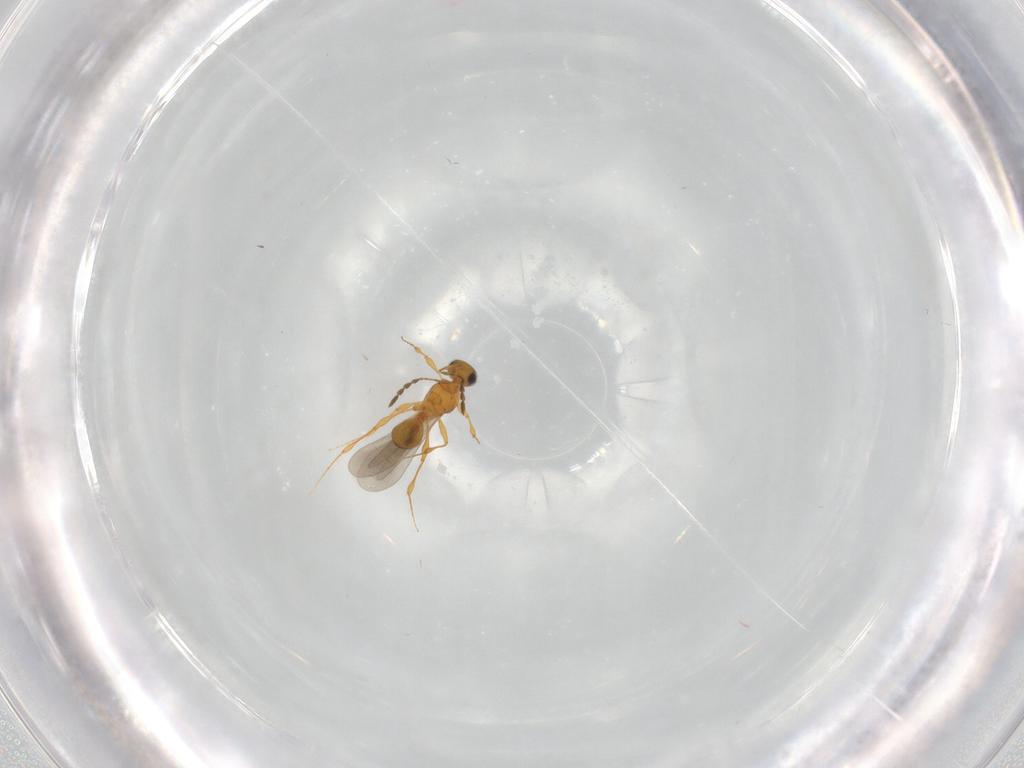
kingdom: Animalia
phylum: Arthropoda
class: Insecta
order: Hymenoptera
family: Platygastridae
